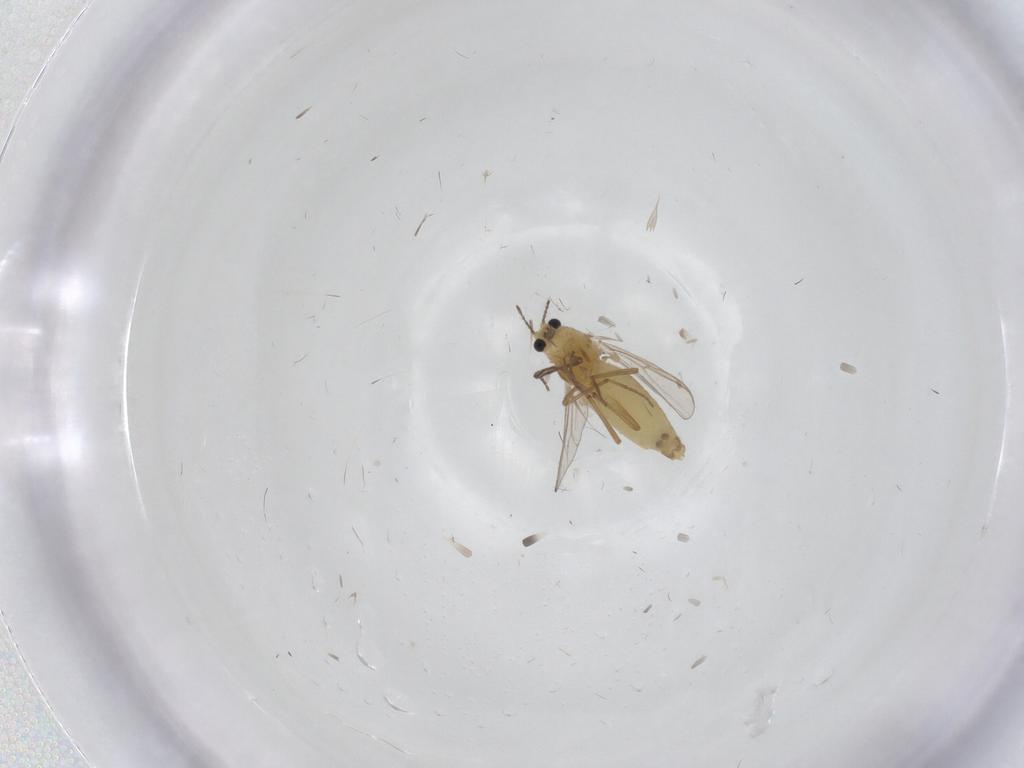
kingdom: Animalia
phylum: Arthropoda
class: Insecta
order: Diptera
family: Chironomidae
